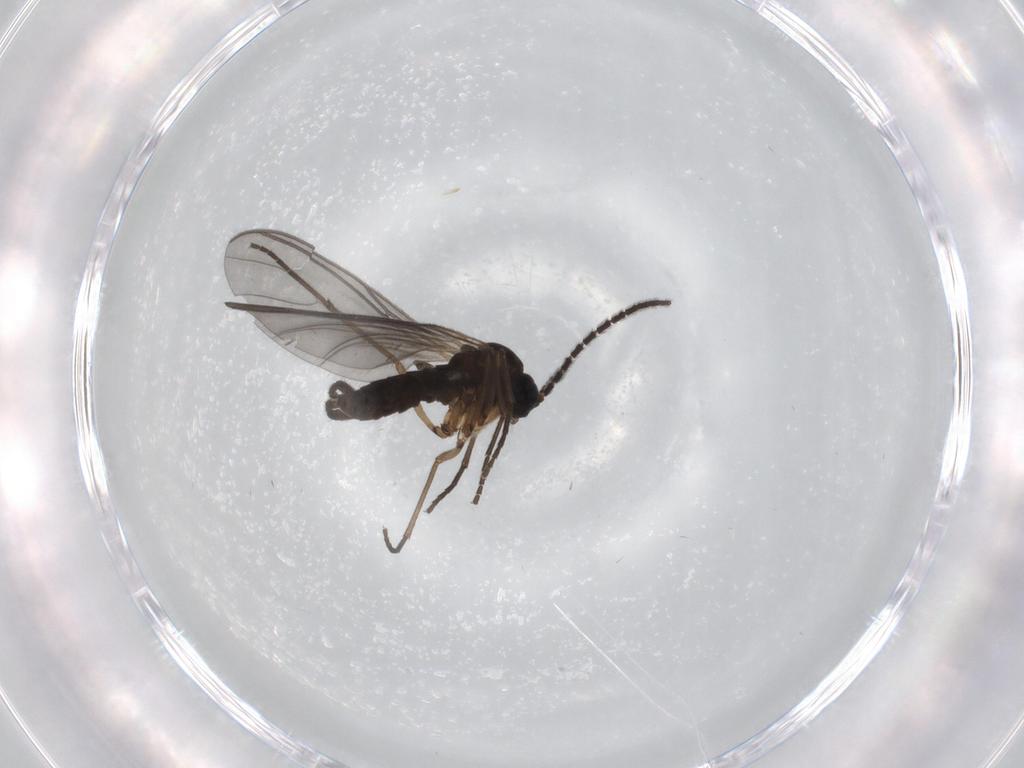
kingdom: Animalia
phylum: Arthropoda
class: Insecta
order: Diptera
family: Sciaridae
